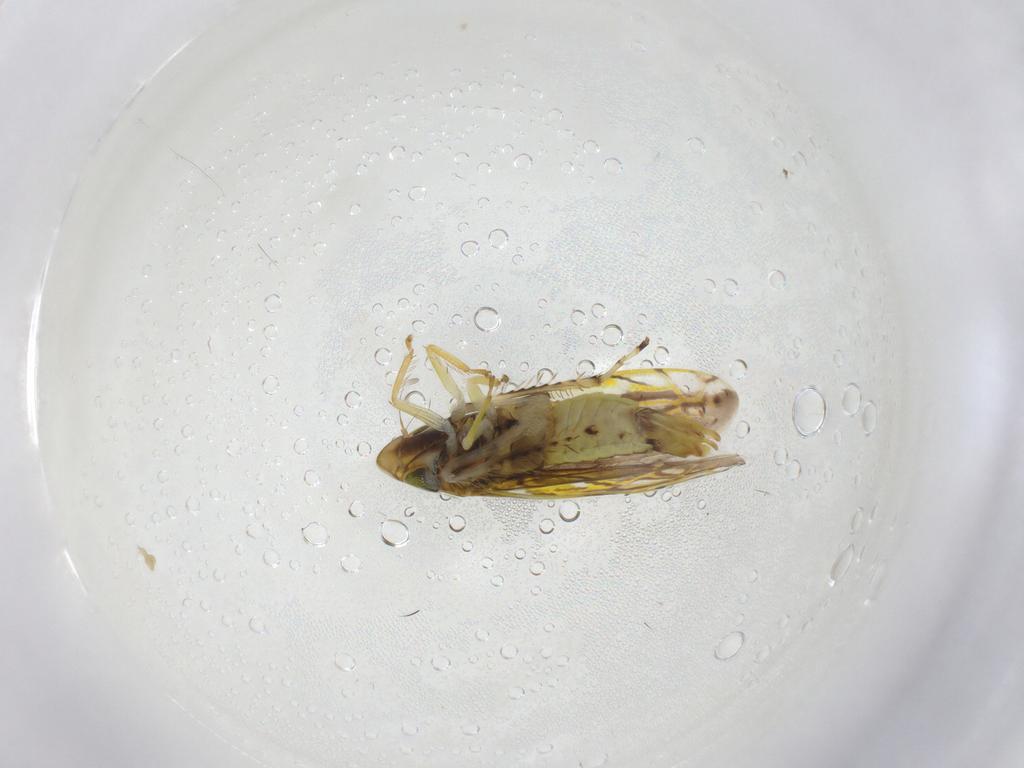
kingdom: Animalia
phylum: Arthropoda
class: Insecta
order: Hemiptera
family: Cicadellidae
